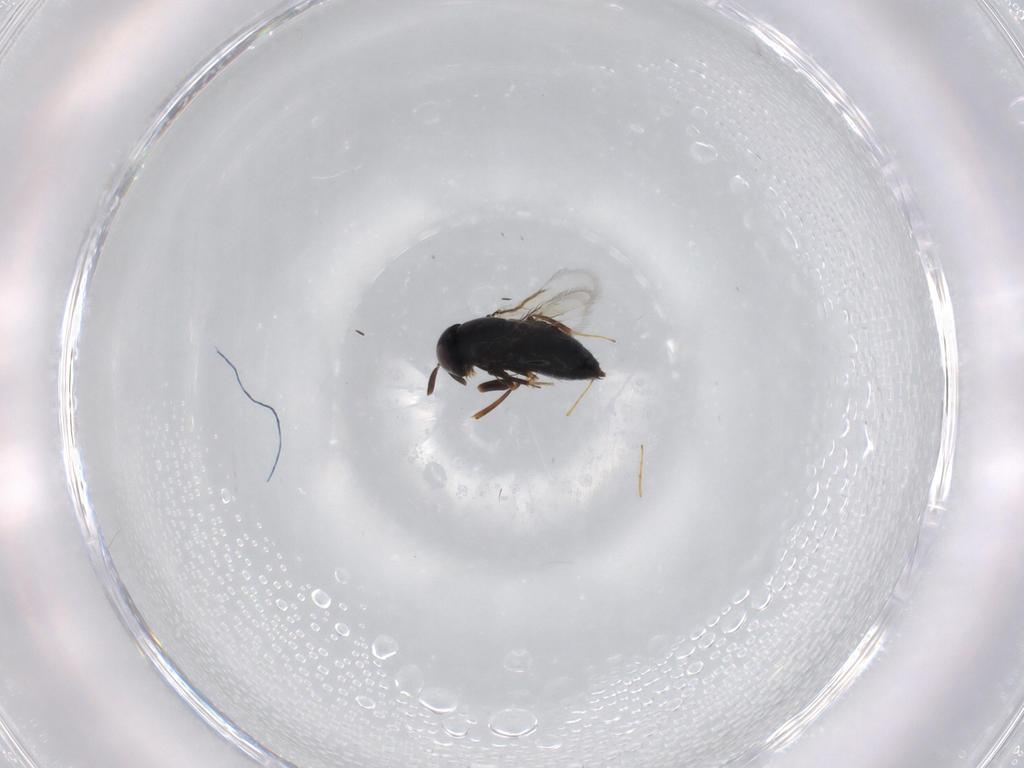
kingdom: Animalia
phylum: Arthropoda
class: Insecta
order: Hymenoptera
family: Signiphoridae
